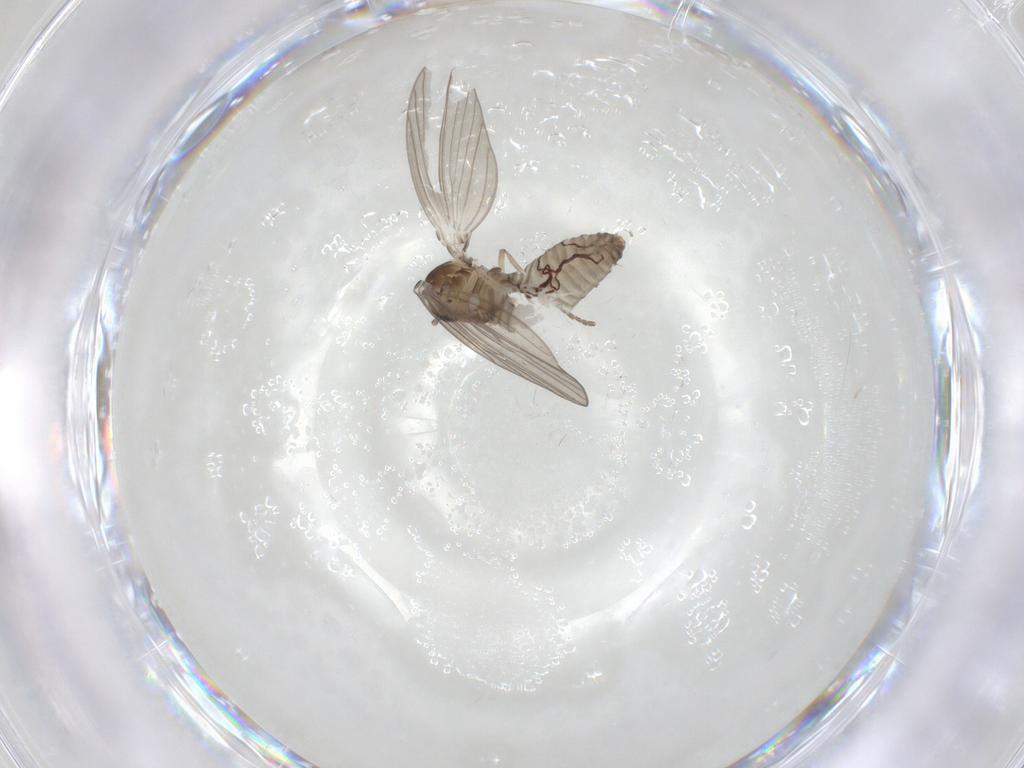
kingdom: Animalia
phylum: Arthropoda
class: Insecta
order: Diptera
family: Psychodidae
